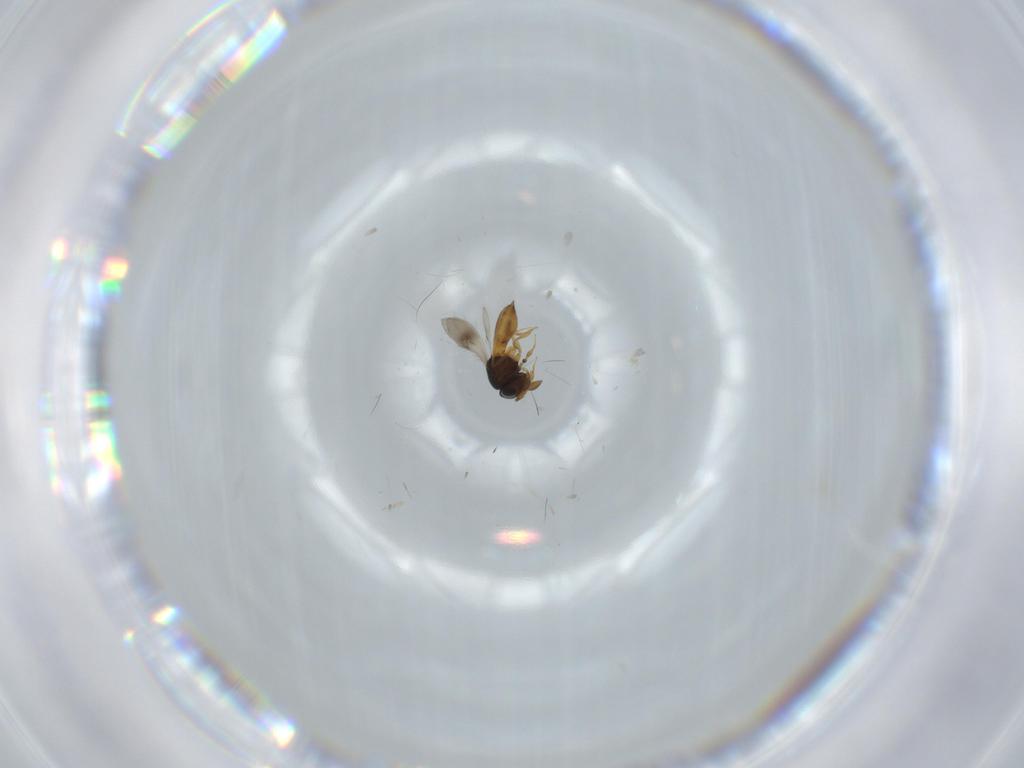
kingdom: Animalia
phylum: Arthropoda
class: Insecta
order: Hymenoptera
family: Scelionidae
